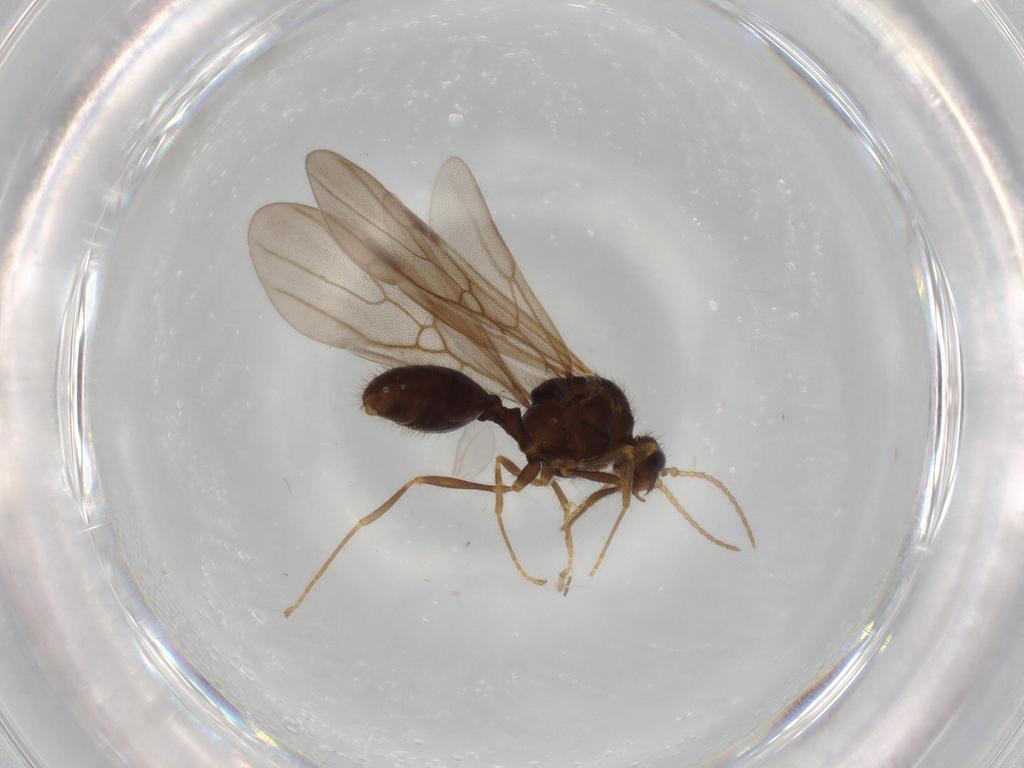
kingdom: Animalia
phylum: Arthropoda
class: Insecta
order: Hymenoptera
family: Formicidae
